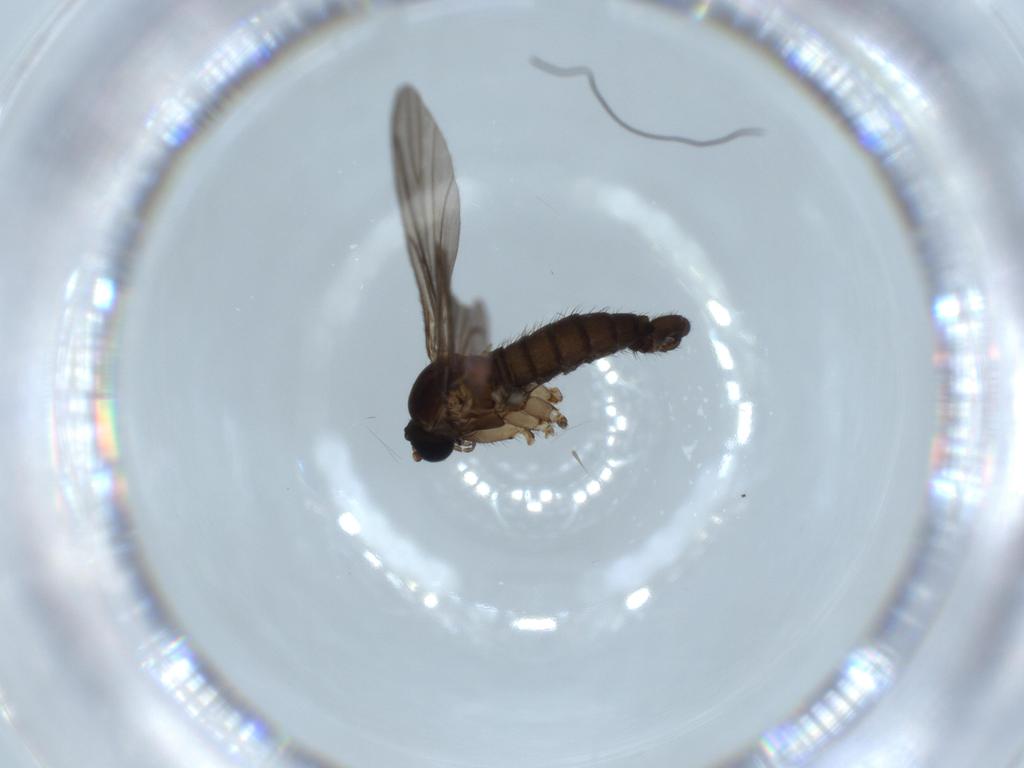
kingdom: Animalia
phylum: Arthropoda
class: Insecta
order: Diptera
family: Sciaridae
